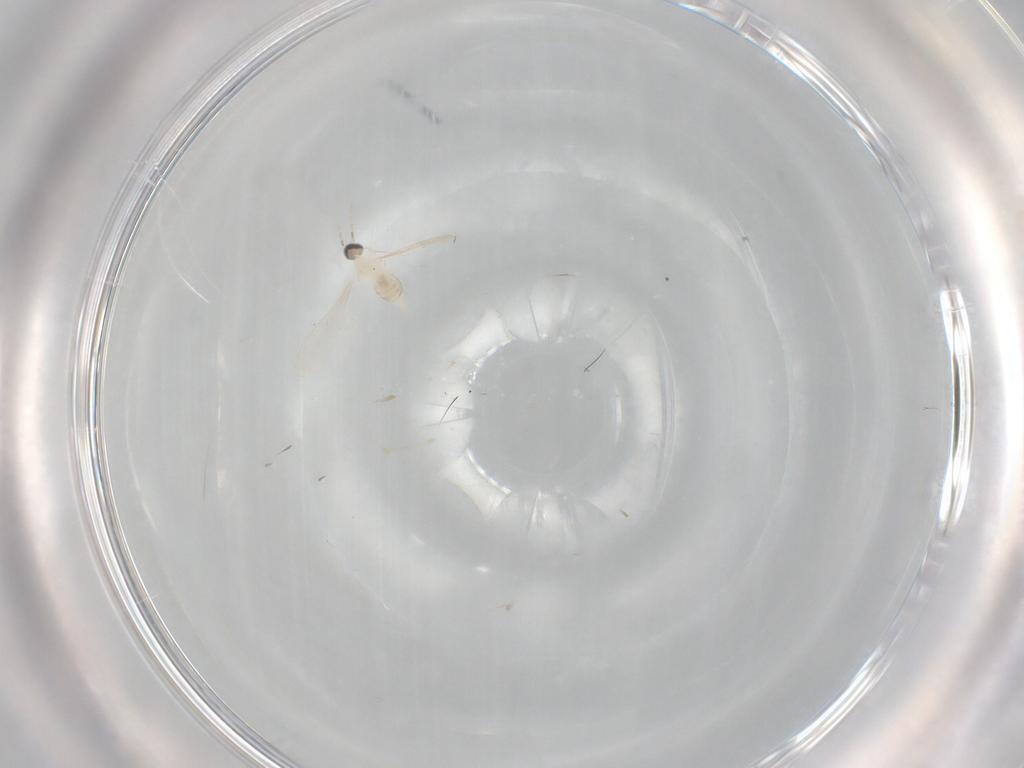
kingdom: Animalia
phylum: Arthropoda
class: Insecta
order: Diptera
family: Cecidomyiidae
